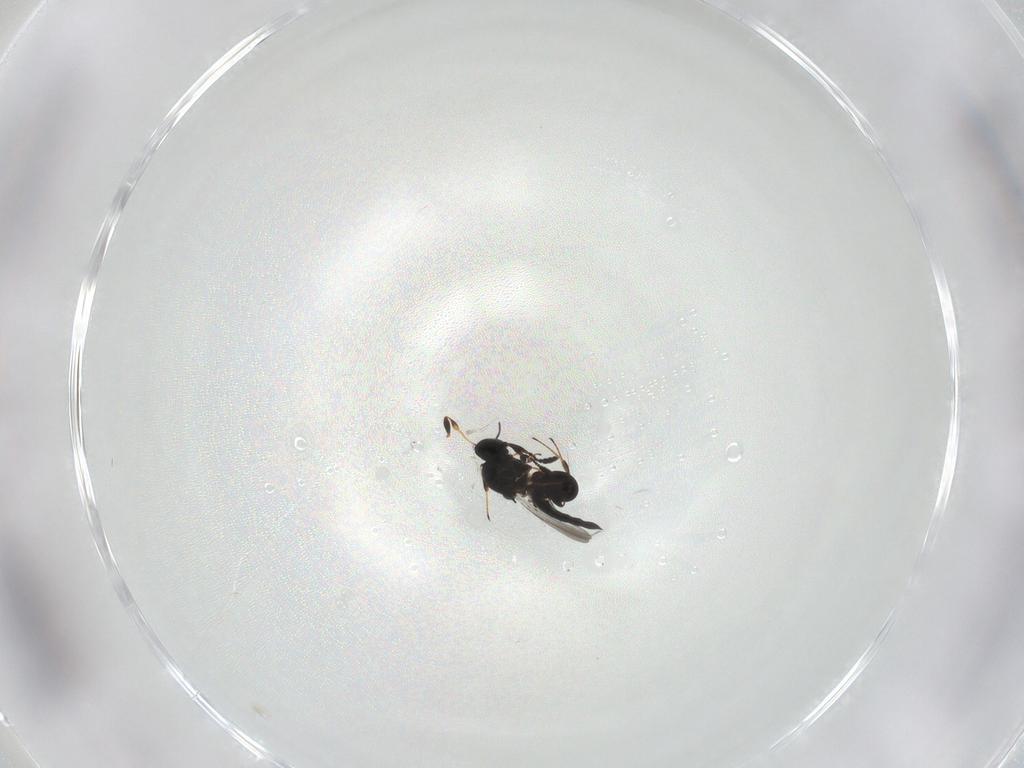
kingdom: Animalia
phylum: Arthropoda
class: Insecta
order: Hymenoptera
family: Platygastridae
